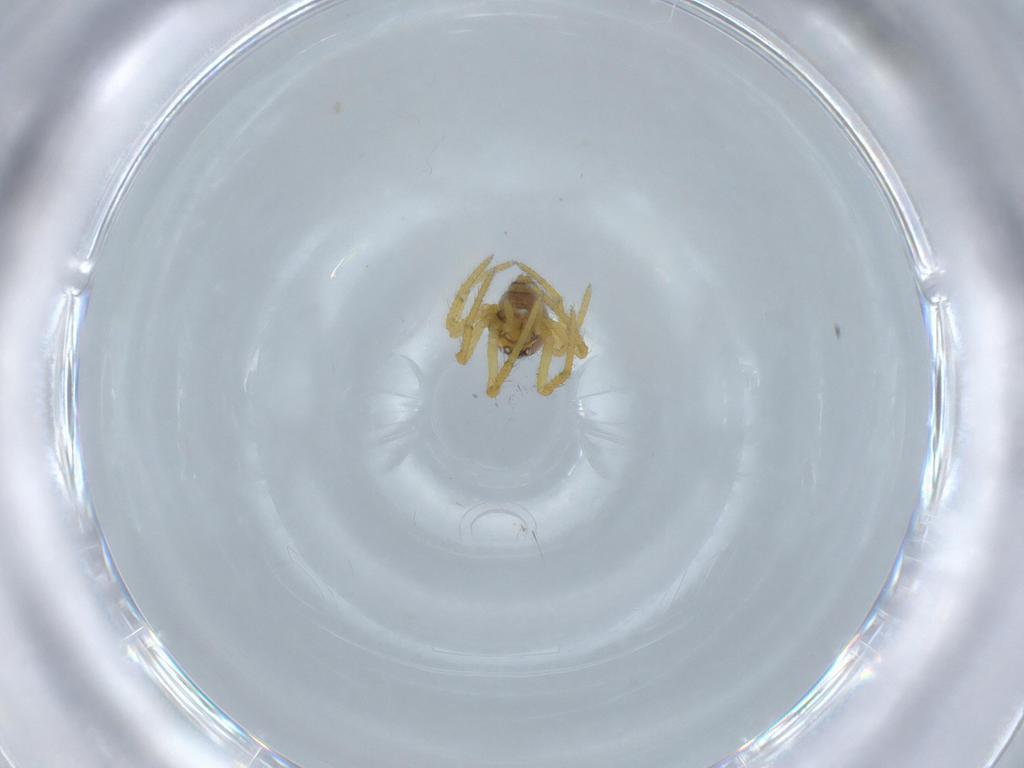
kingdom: Animalia
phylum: Arthropoda
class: Arachnida
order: Araneae
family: Theridiidae
